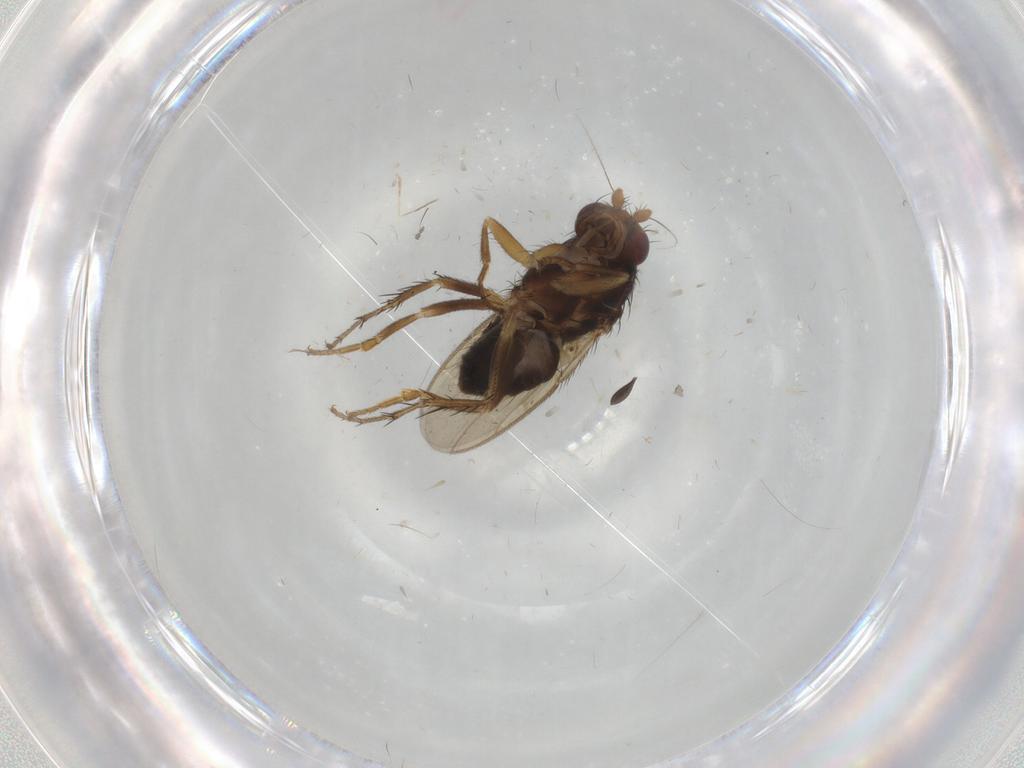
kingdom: Animalia
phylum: Arthropoda
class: Insecta
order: Diptera
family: Sphaeroceridae
